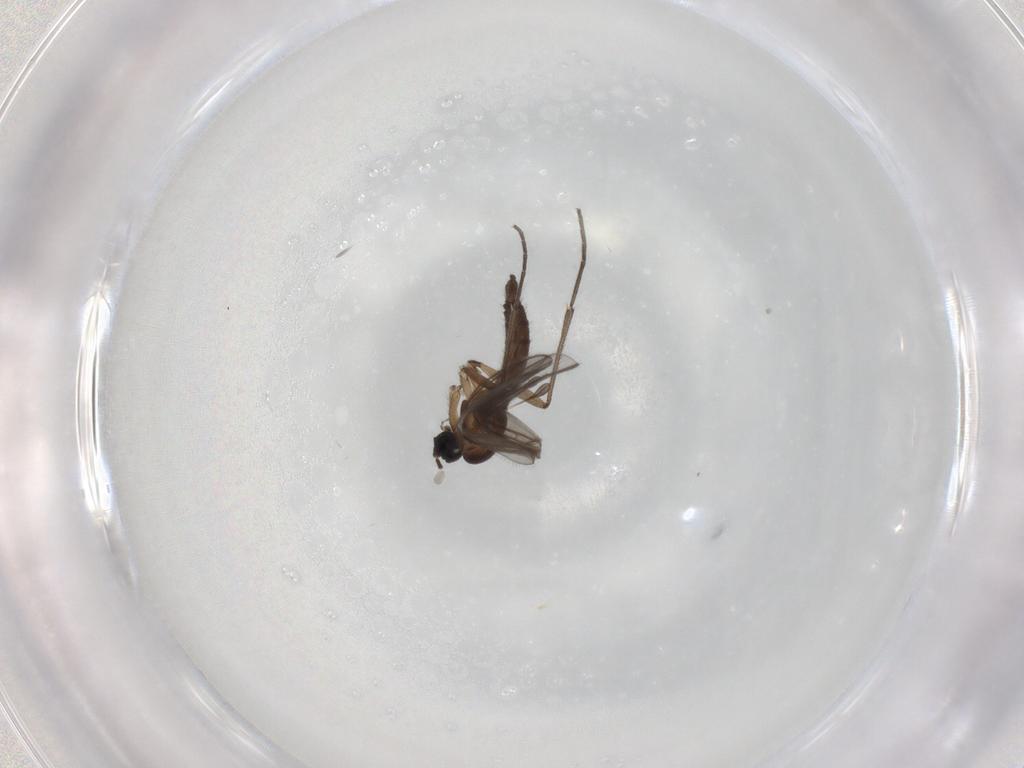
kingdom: Animalia
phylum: Arthropoda
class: Insecta
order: Diptera
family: Sciaridae
